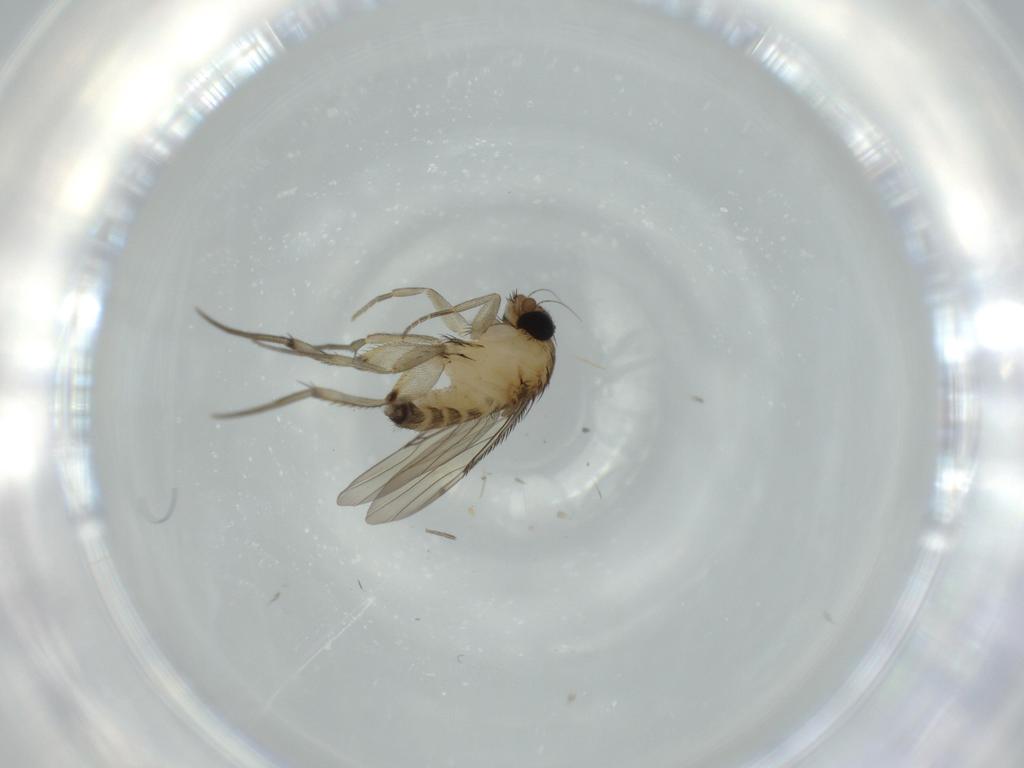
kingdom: Animalia
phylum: Arthropoda
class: Insecta
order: Diptera
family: Phoridae
